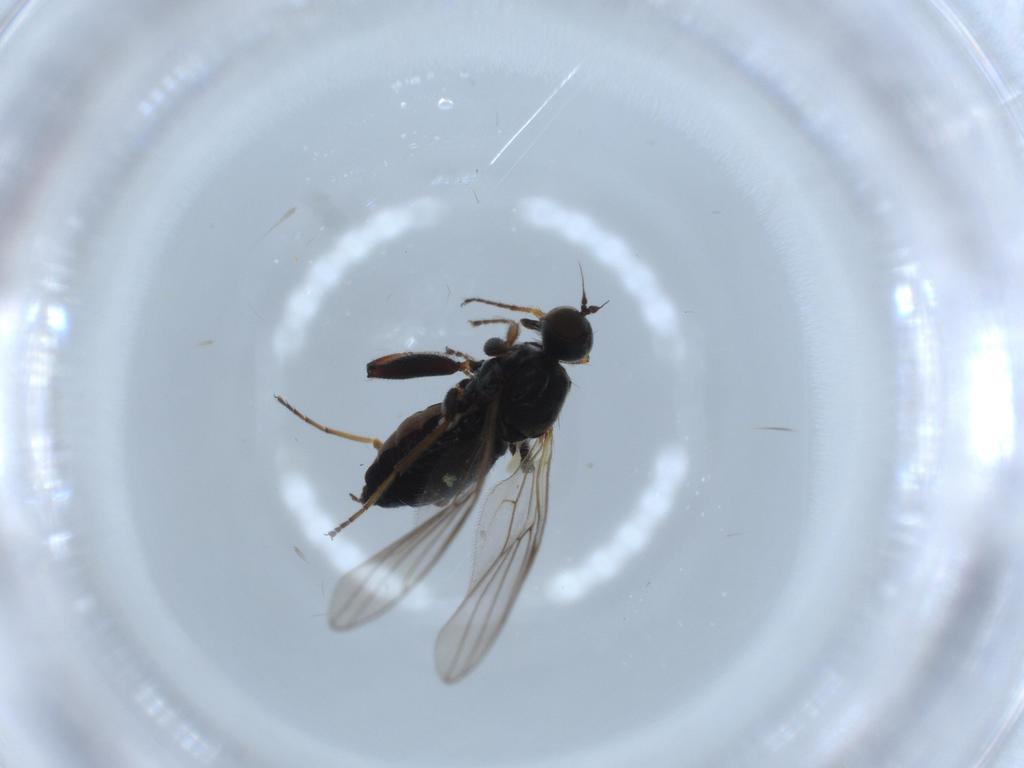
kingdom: Animalia
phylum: Arthropoda
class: Insecta
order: Diptera
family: Hybotidae
